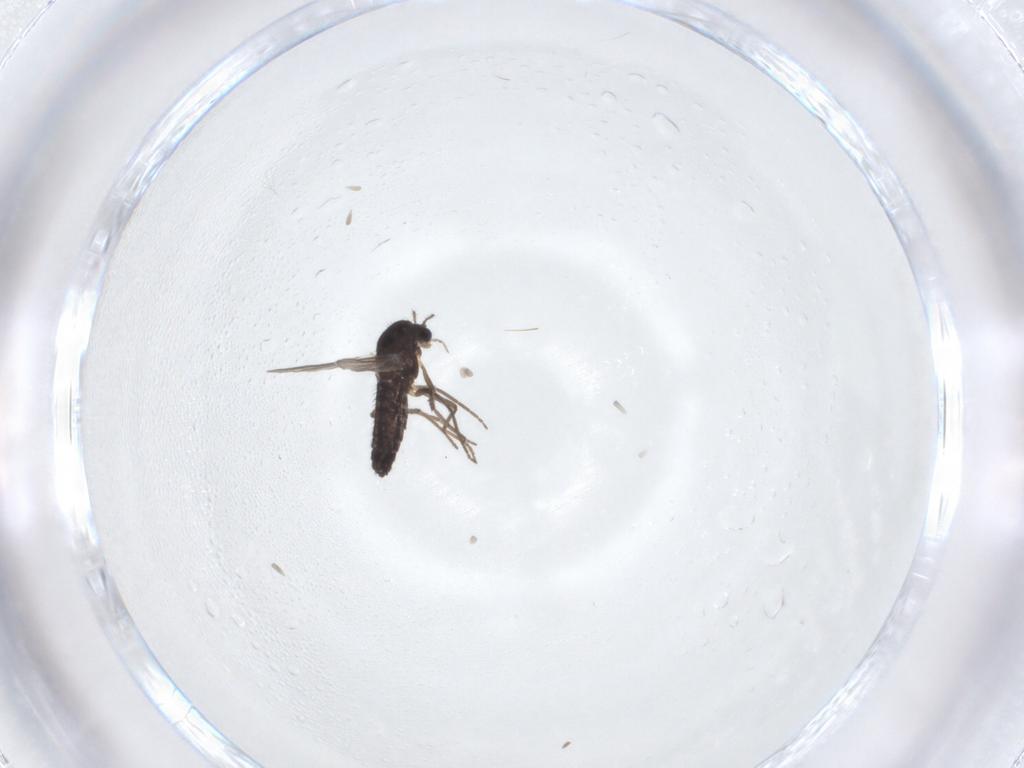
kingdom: Animalia
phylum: Arthropoda
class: Insecta
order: Diptera
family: Chironomidae
